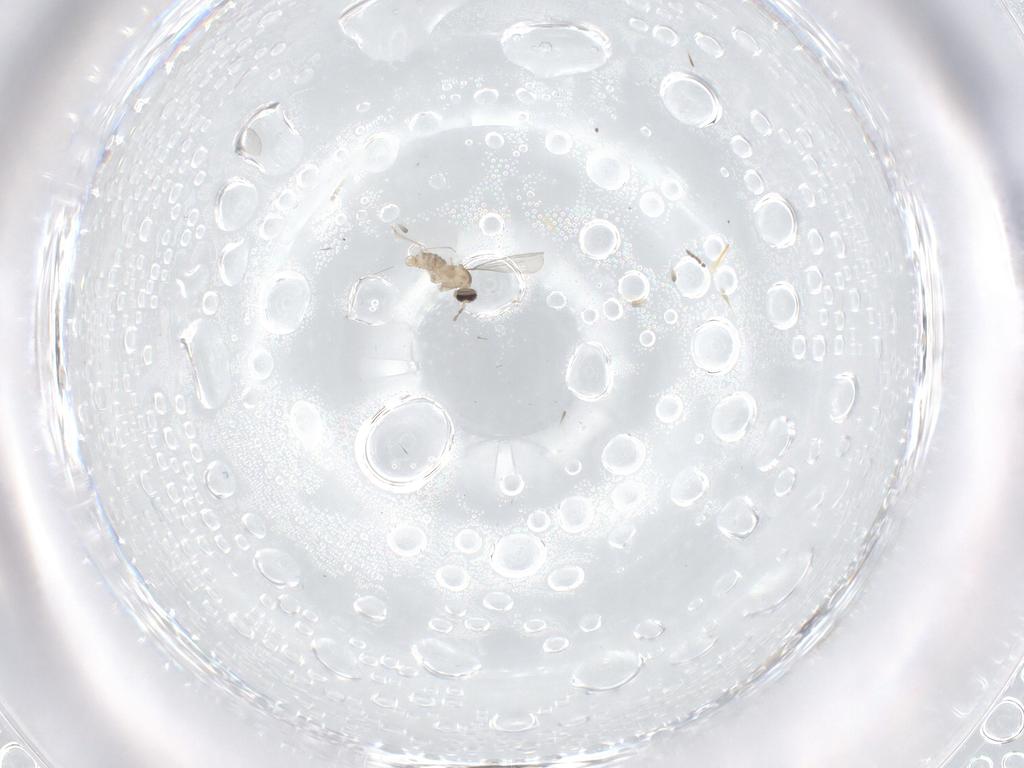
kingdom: Animalia
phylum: Arthropoda
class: Insecta
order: Diptera
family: Cecidomyiidae
